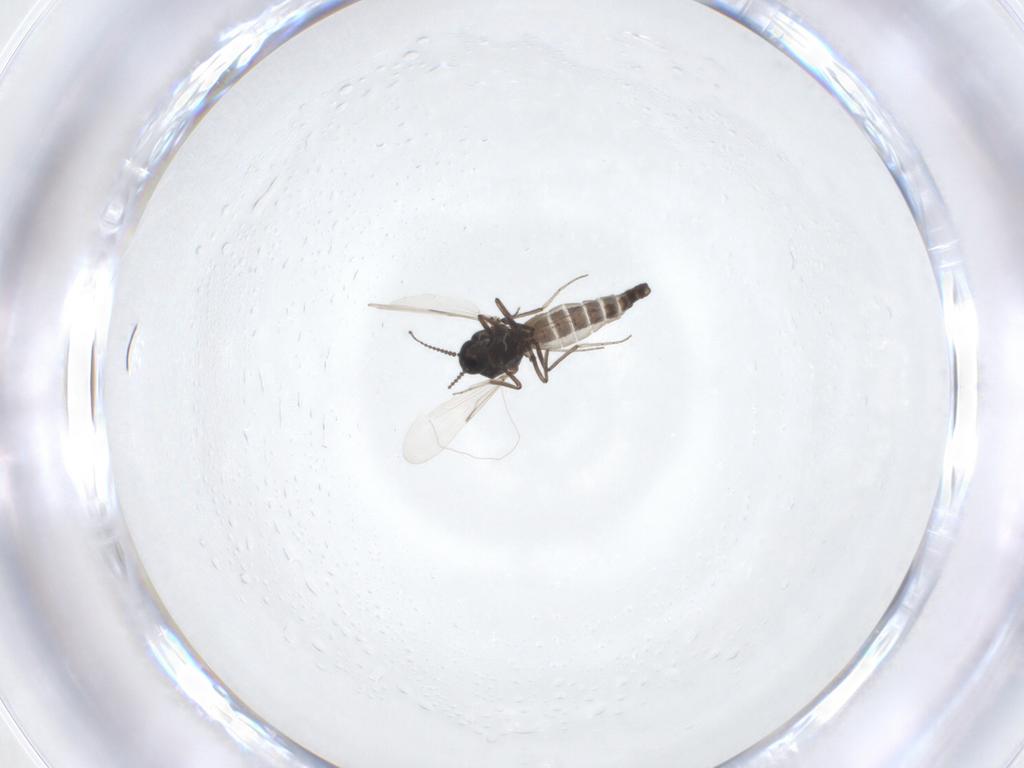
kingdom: Animalia
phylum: Arthropoda
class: Insecta
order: Diptera
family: Ceratopogonidae
